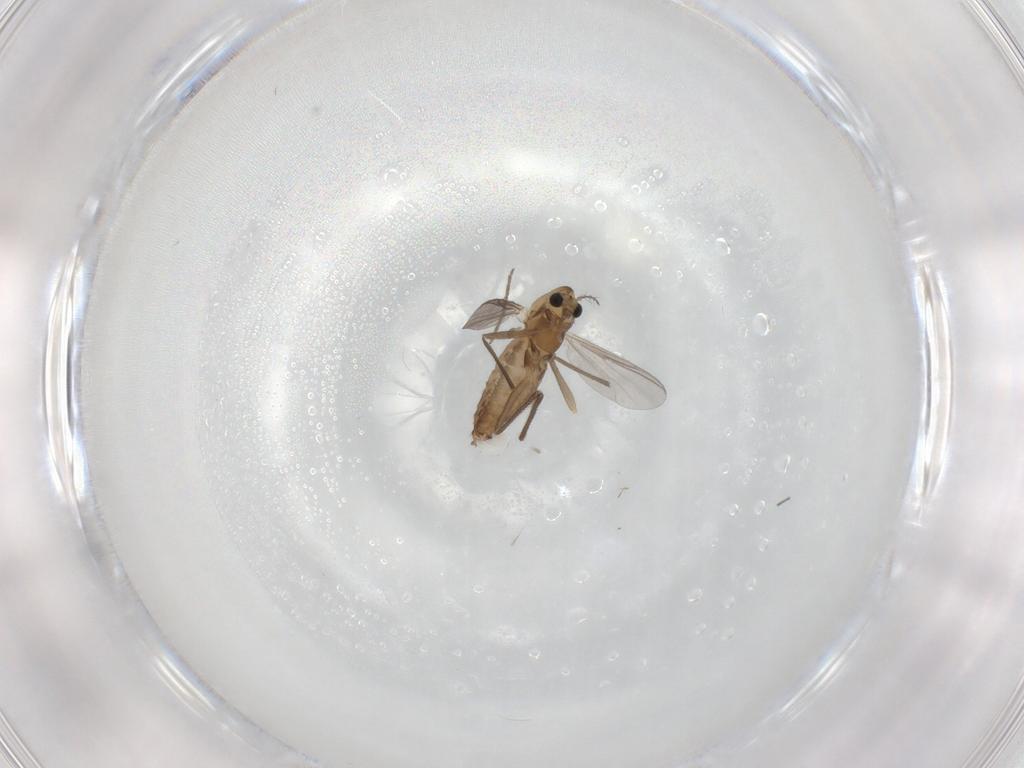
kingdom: Animalia
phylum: Arthropoda
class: Insecta
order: Diptera
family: Chironomidae
